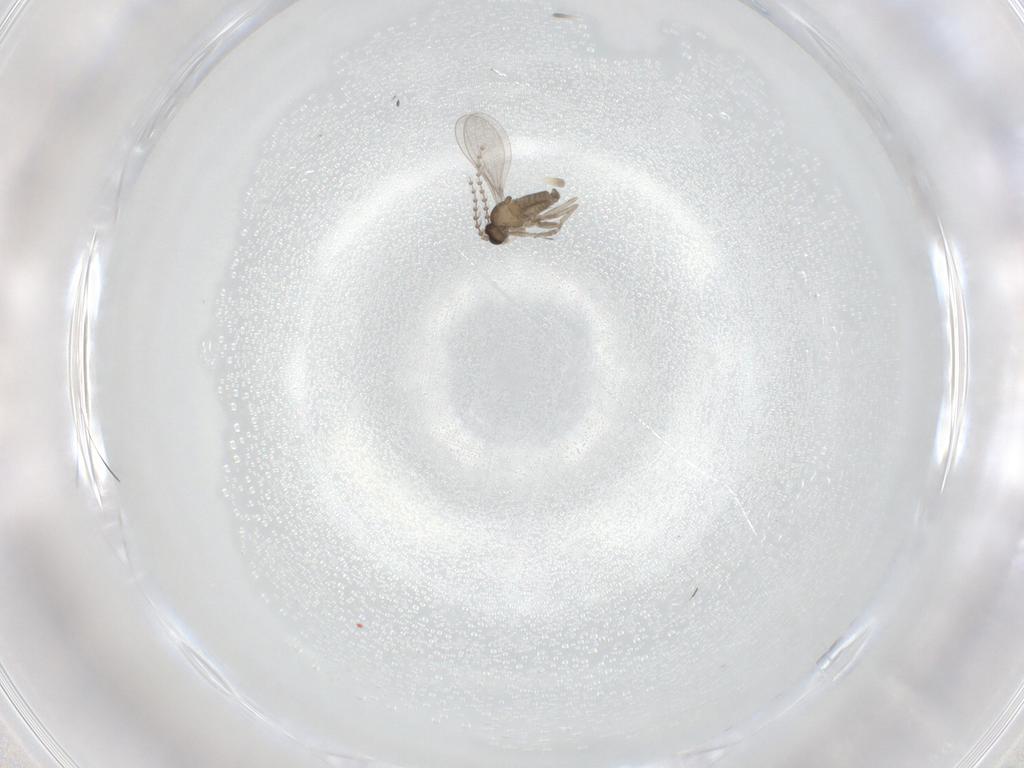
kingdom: Animalia
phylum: Arthropoda
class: Insecta
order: Diptera
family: Cecidomyiidae
